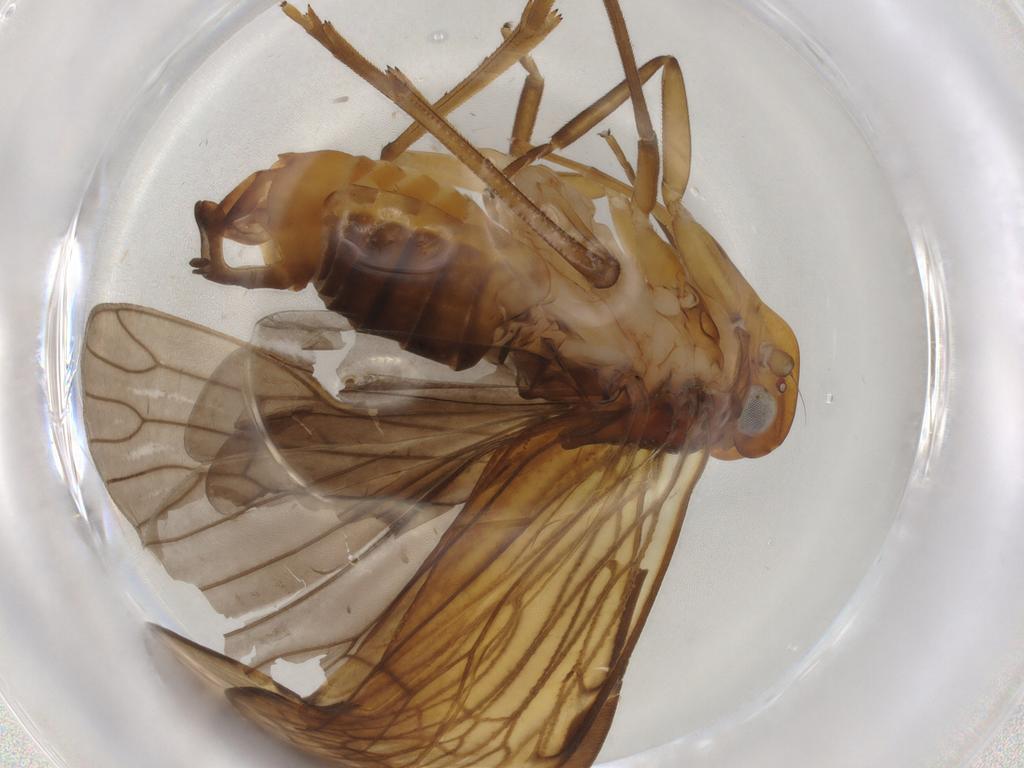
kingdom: Animalia
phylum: Arthropoda
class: Insecta
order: Hemiptera
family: Cixiidae
